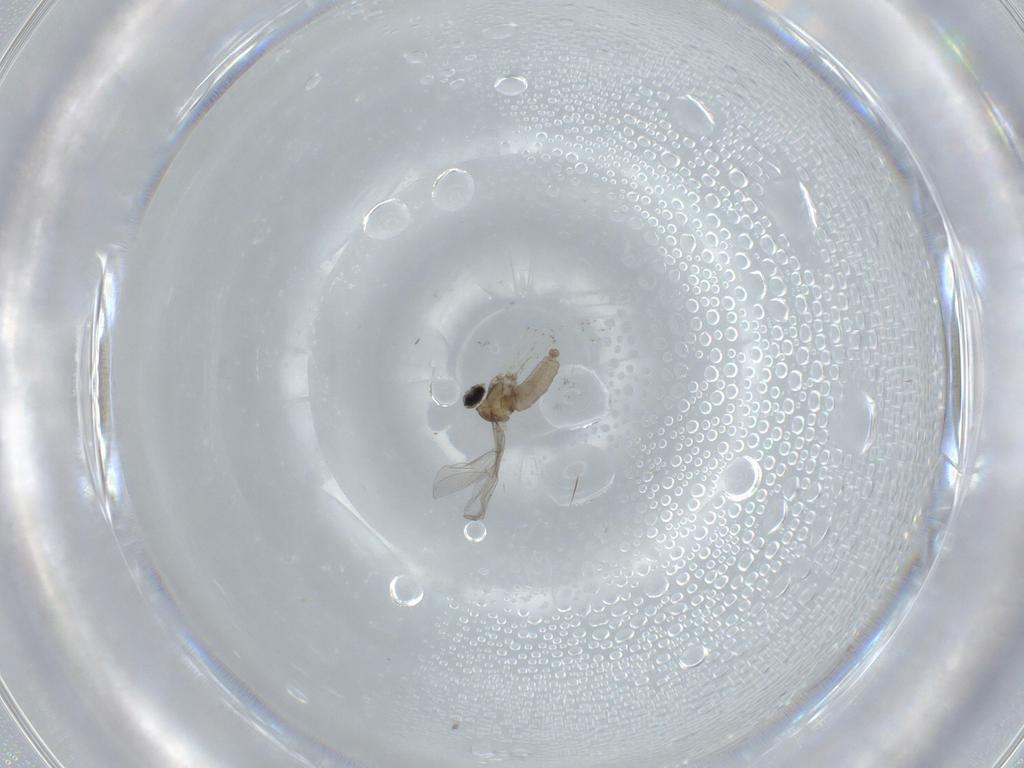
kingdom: Animalia
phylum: Arthropoda
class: Insecta
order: Diptera
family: Cecidomyiidae
